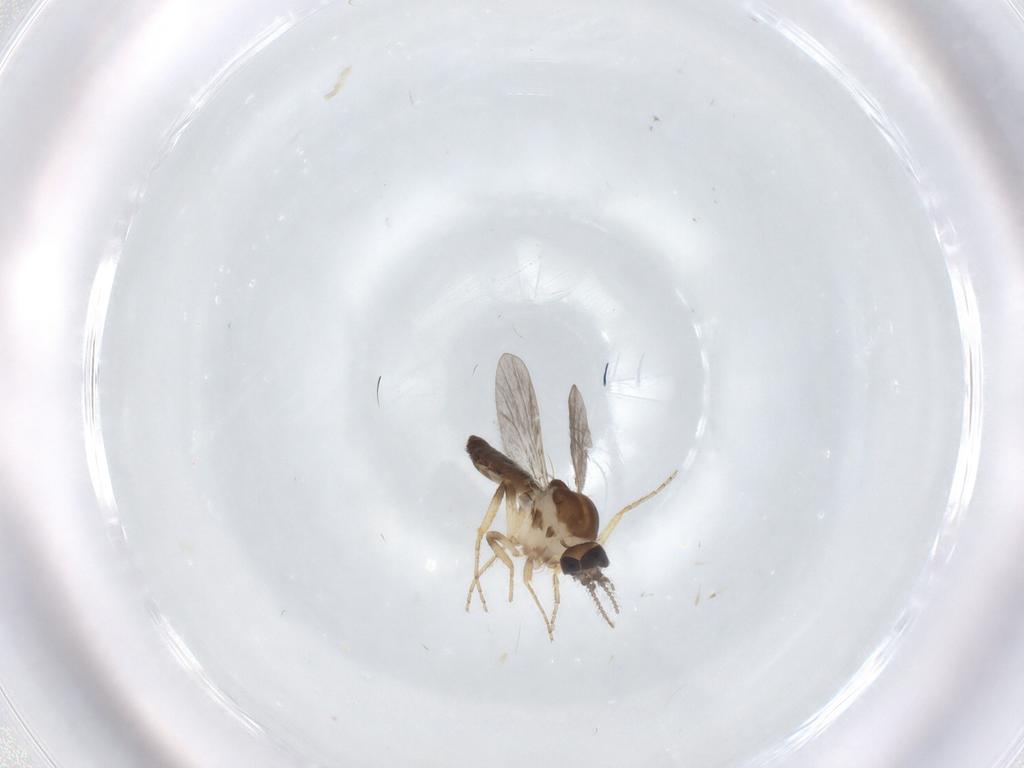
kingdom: Animalia
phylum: Arthropoda
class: Insecta
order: Diptera
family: Ceratopogonidae
